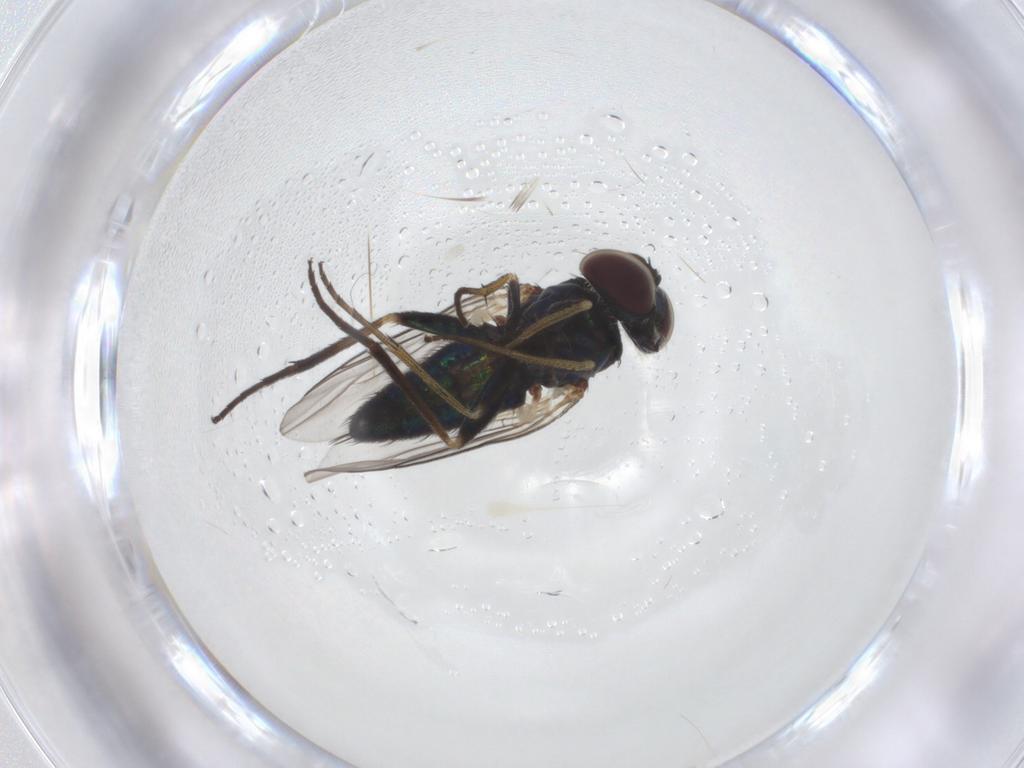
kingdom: Animalia
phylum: Arthropoda
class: Insecta
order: Diptera
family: Dolichopodidae
